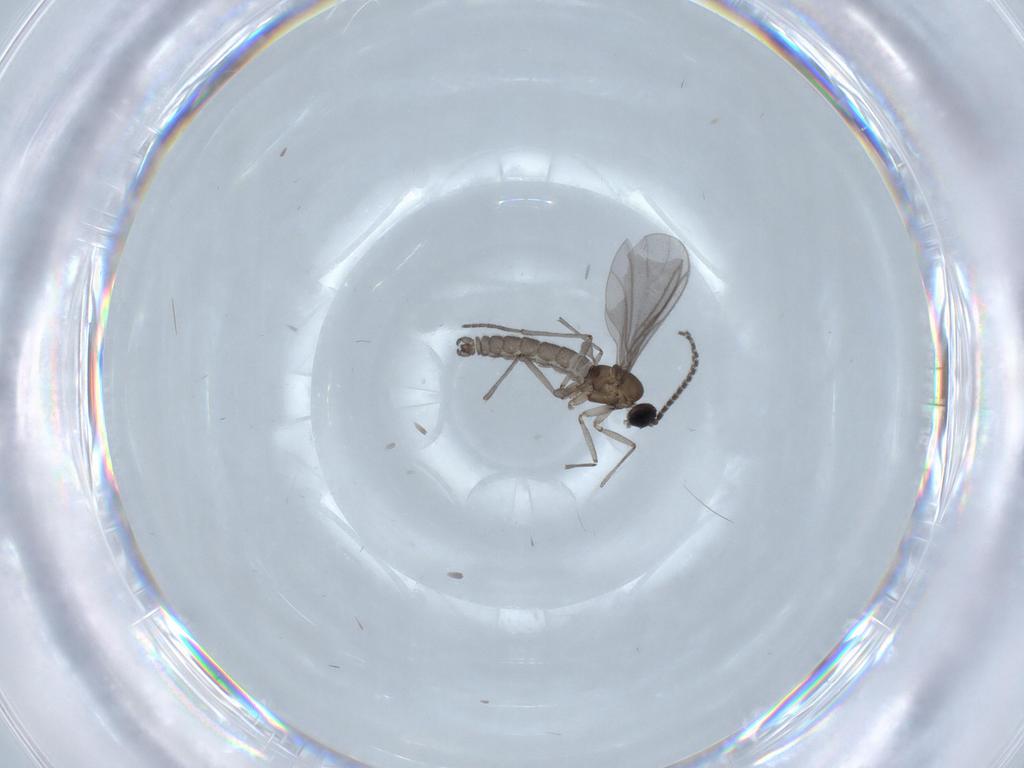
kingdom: Animalia
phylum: Arthropoda
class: Insecta
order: Diptera
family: Sciaridae
